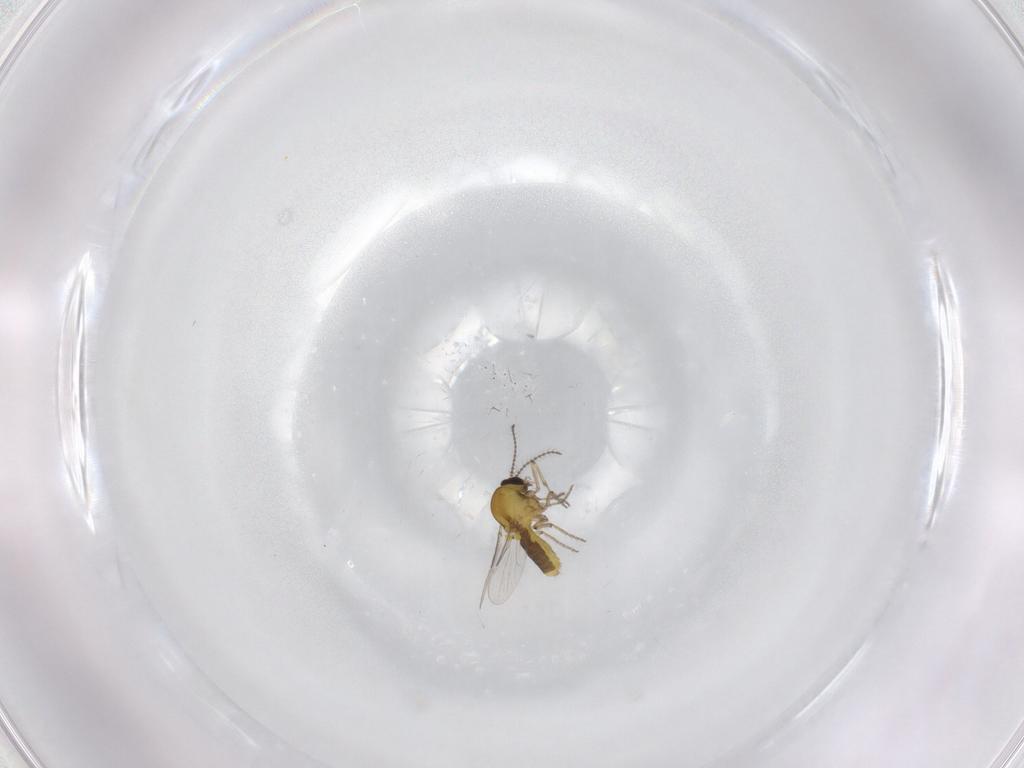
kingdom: Animalia
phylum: Arthropoda
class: Insecta
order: Diptera
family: Ceratopogonidae
